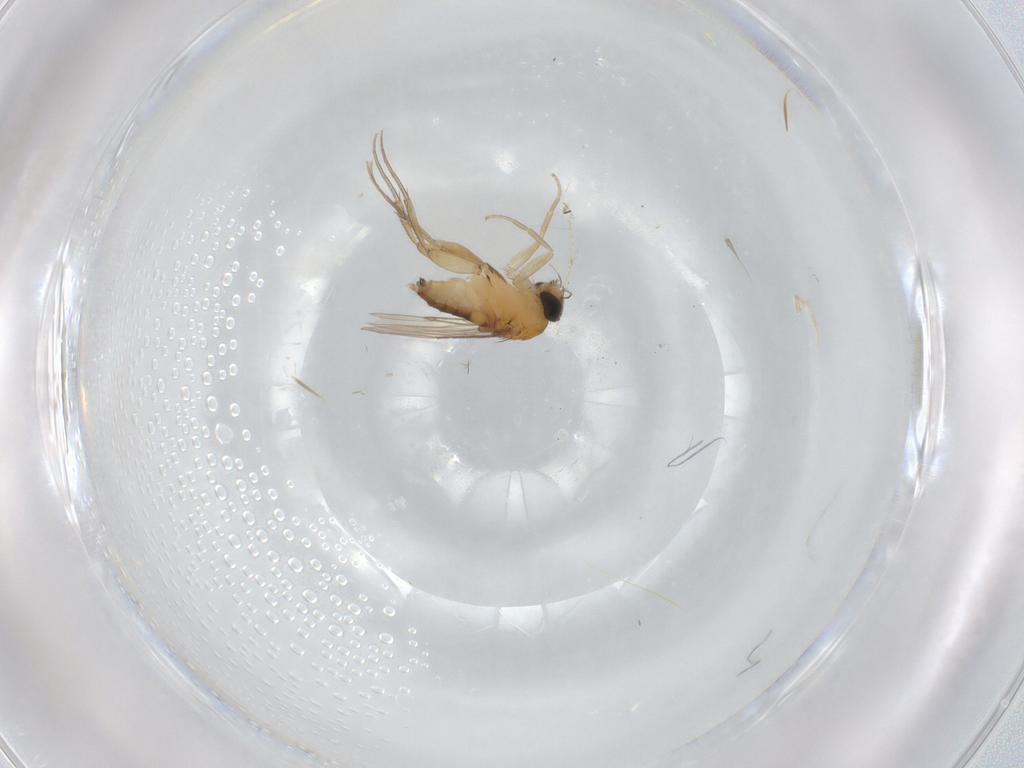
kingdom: Animalia
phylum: Arthropoda
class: Insecta
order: Diptera
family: Phoridae
